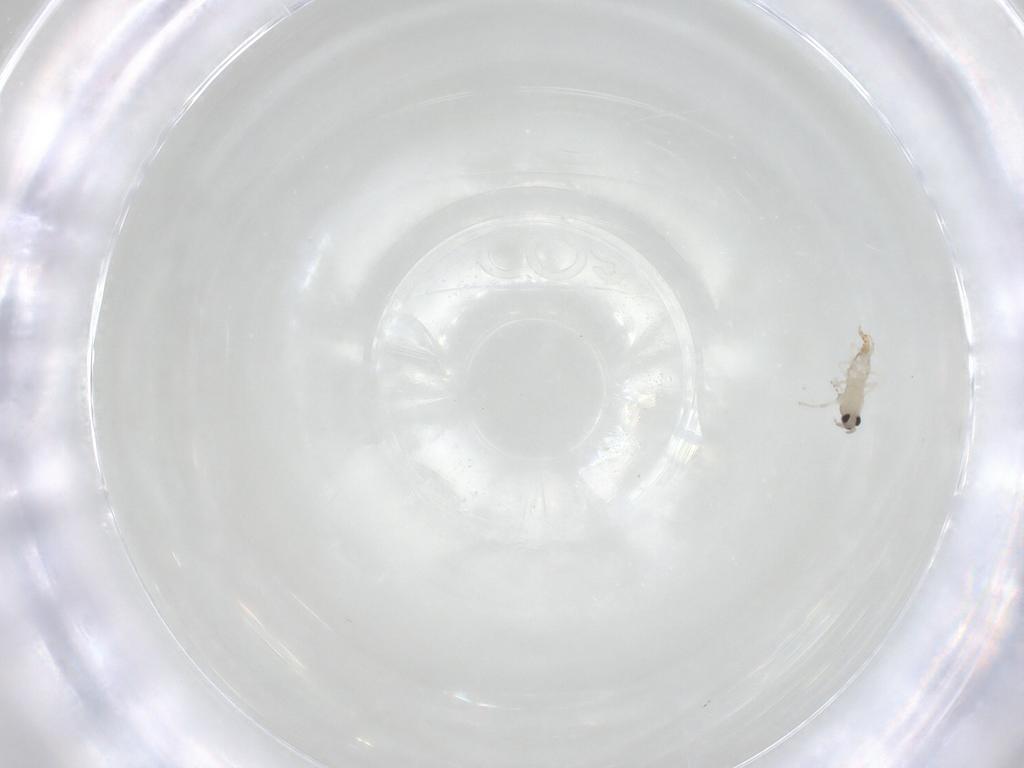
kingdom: Animalia
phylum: Arthropoda
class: Insecta
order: Diptera
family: Cecidomyiidae
